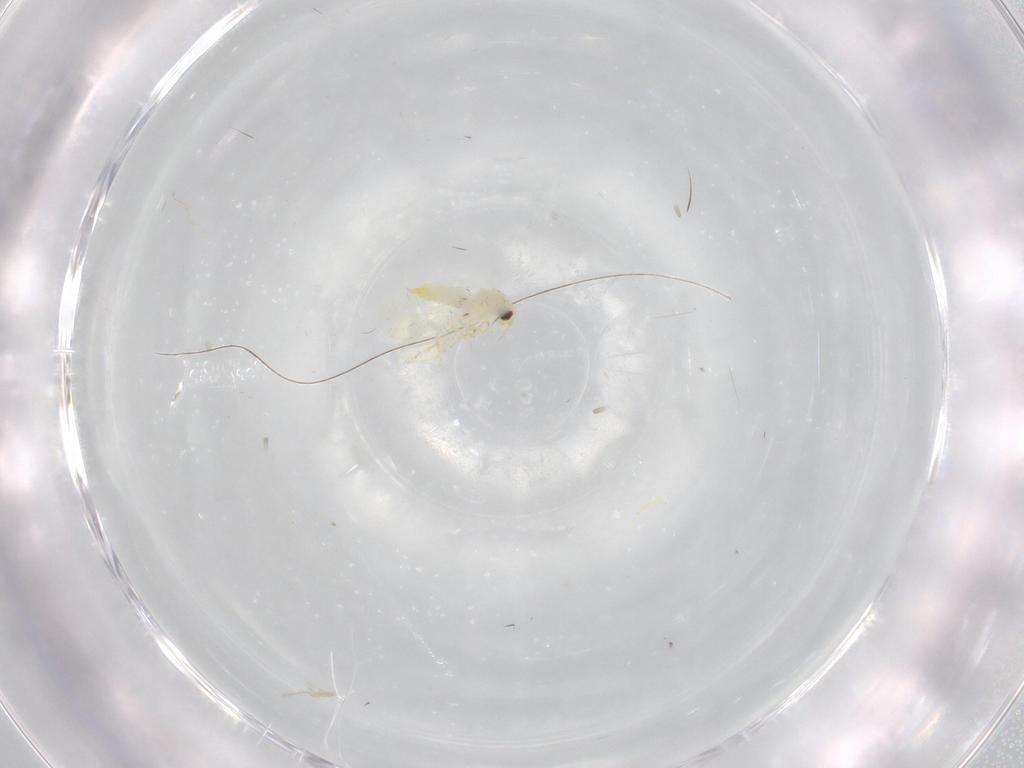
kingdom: Animalia
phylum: Arthropoda
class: Insecta
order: Hemiptera
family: Aleyrodidae
